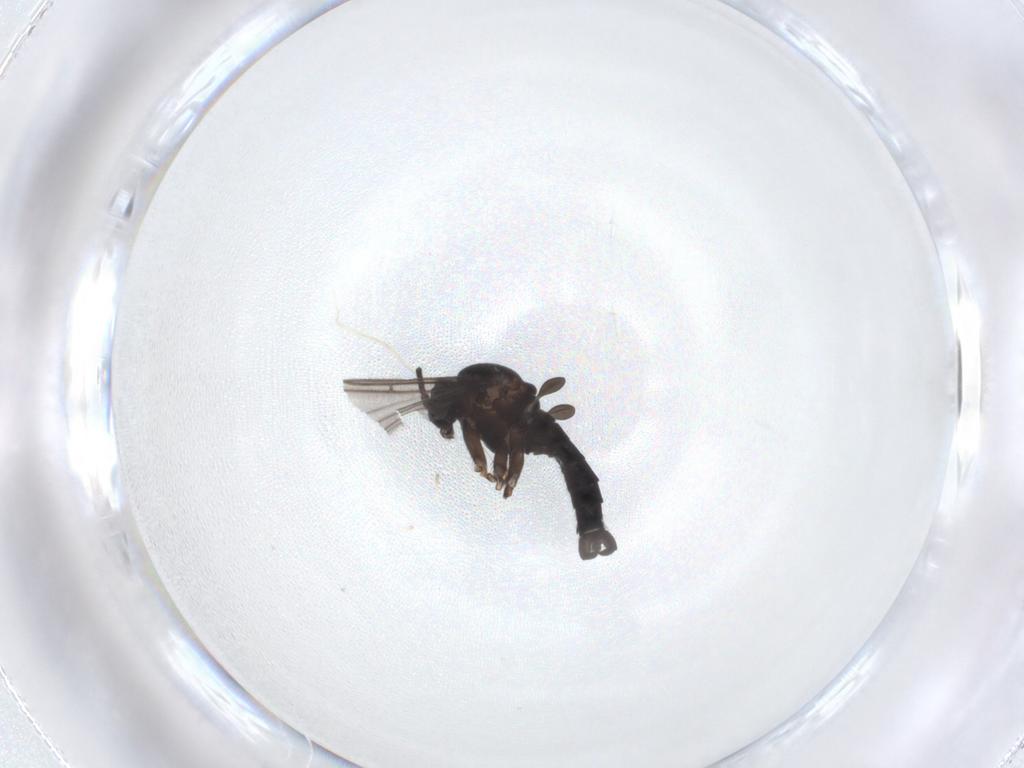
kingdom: Animalia
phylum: Arthropoda
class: Insecta
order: Diptera
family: Sciaridae
